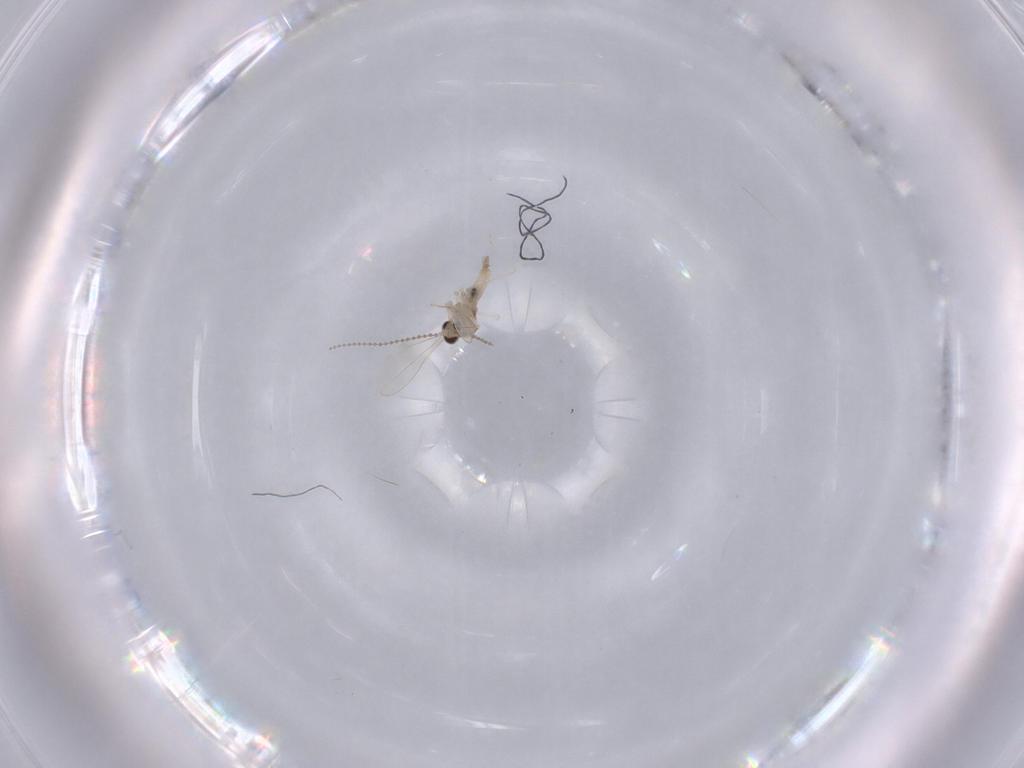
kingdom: Animalia
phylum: Arthropoda
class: Insecta
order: Diptera
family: Cecidomyiidae
